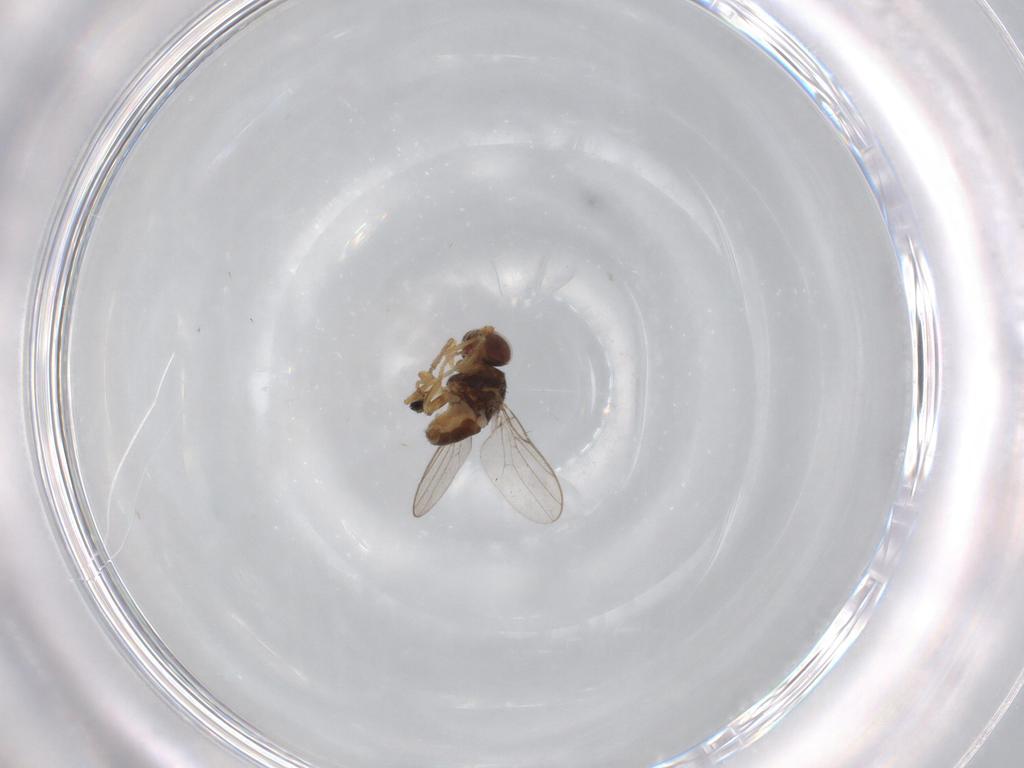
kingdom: Animalia
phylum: Arthropoda
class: Insecta
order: Diptera
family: Chloropidae
